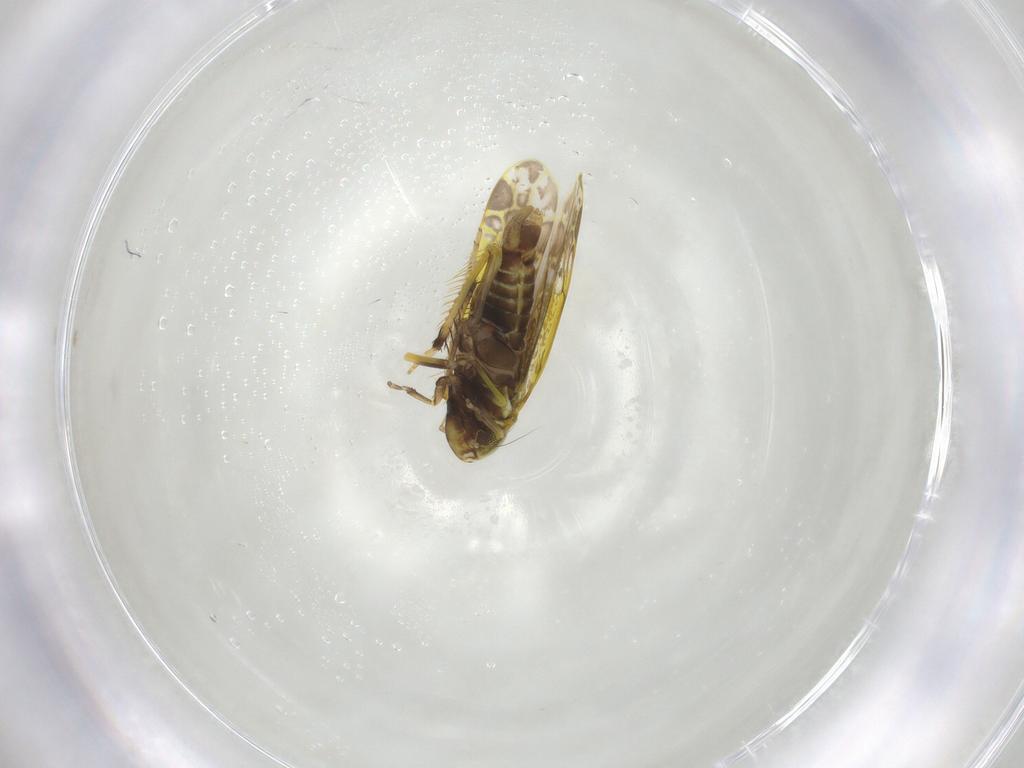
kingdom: Animalia
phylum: Arthropoda
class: Insecta
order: Hemiptera
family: Cicadellidae
